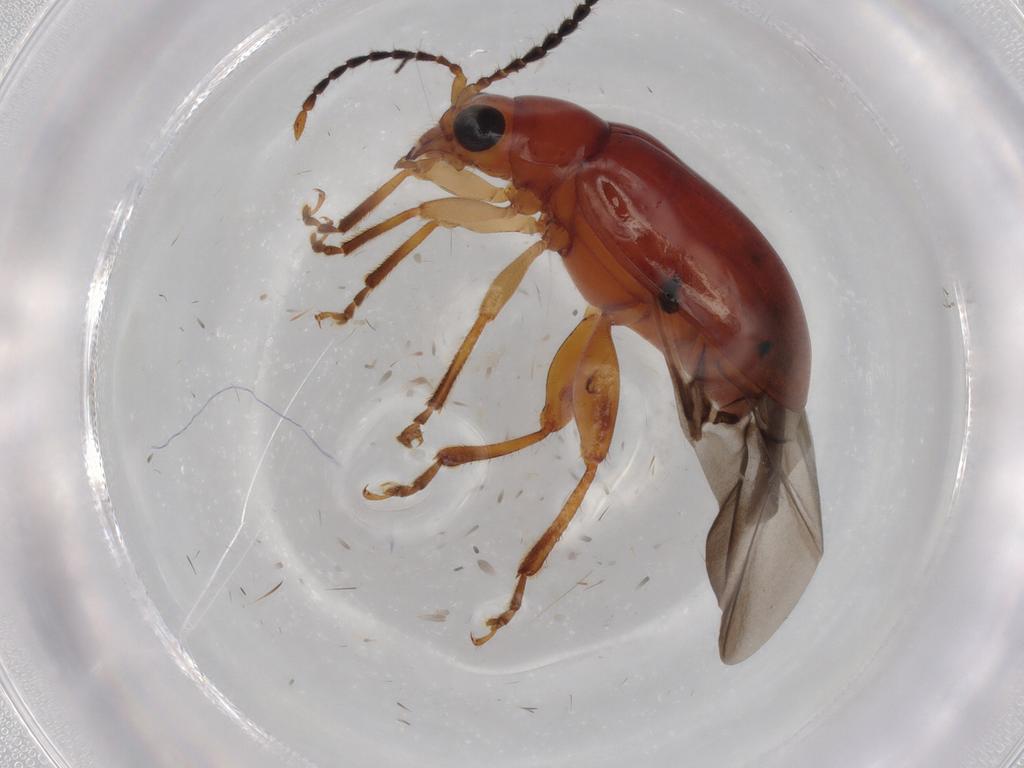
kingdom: Animalia
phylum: Arthropoda
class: Insecta
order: Coleoptera
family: Chrysomelidae
